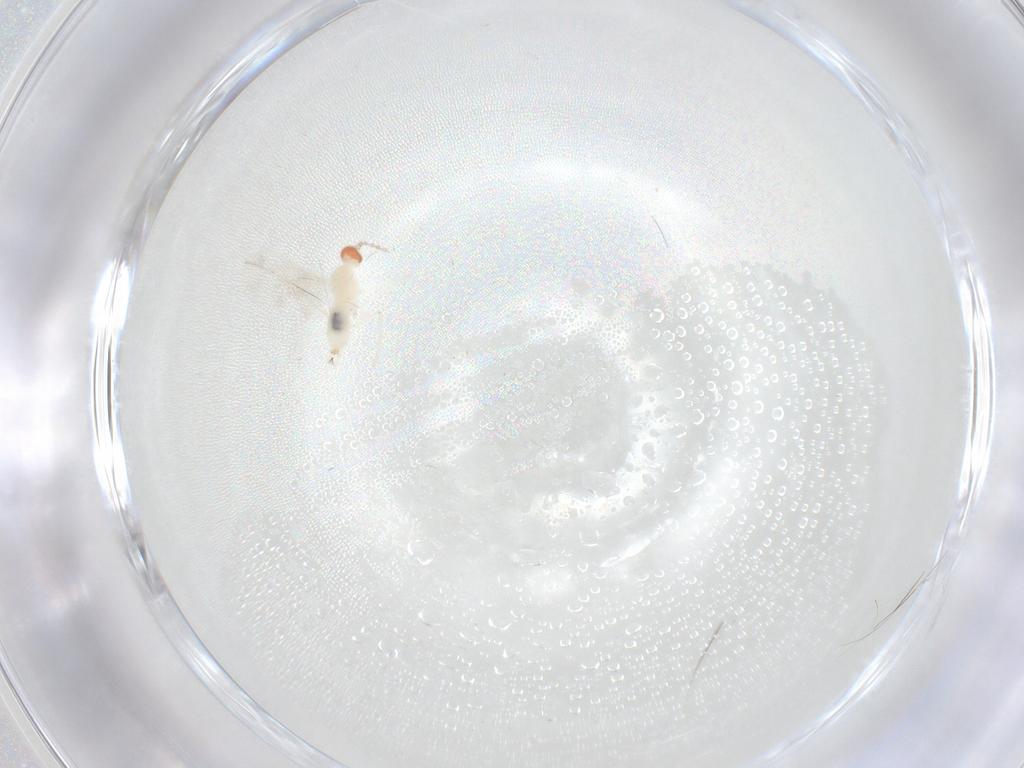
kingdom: Animalia
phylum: Arthropoda
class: Insecta
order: Diptera
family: Cecidomyiidae
